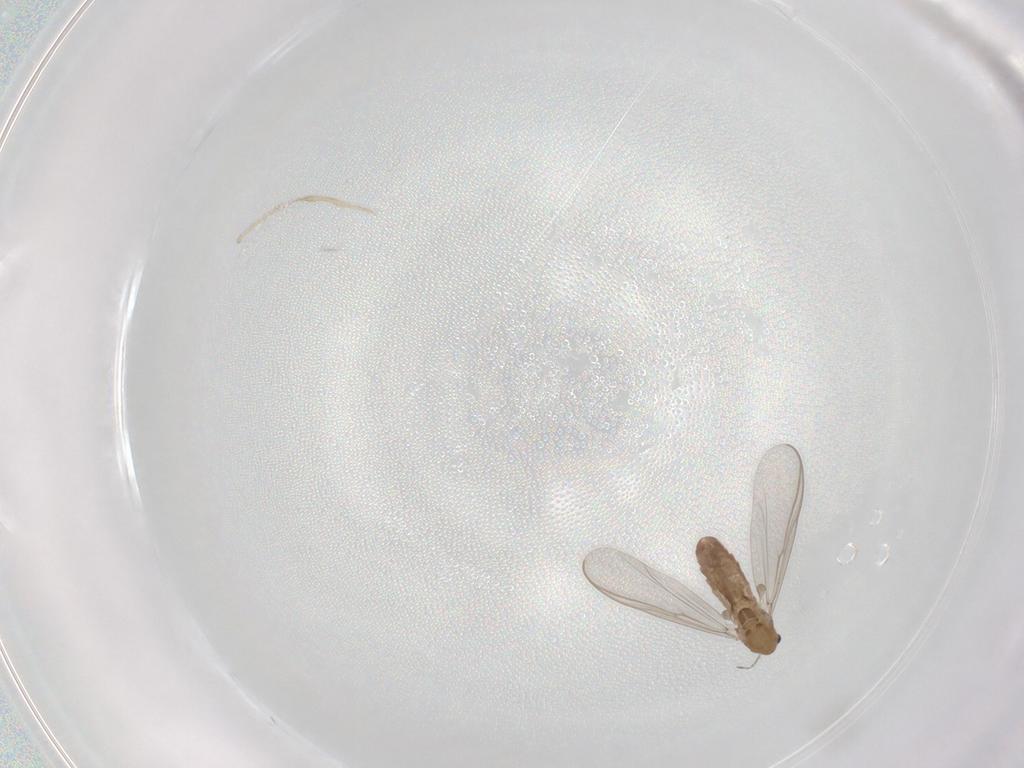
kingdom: Animalia
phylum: Arthropoda
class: Insecta
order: Diptera
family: Chironomidae
